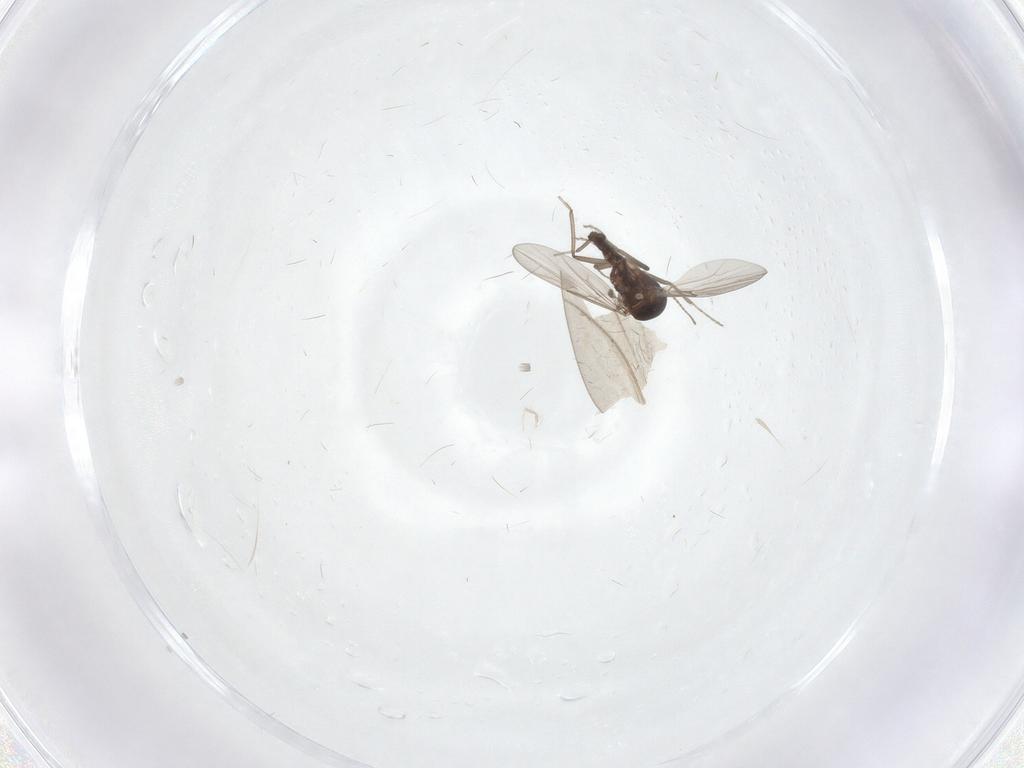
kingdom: Animalia
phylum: Arthropoda
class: Insecta
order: Diptera
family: Ceratopogonidae
